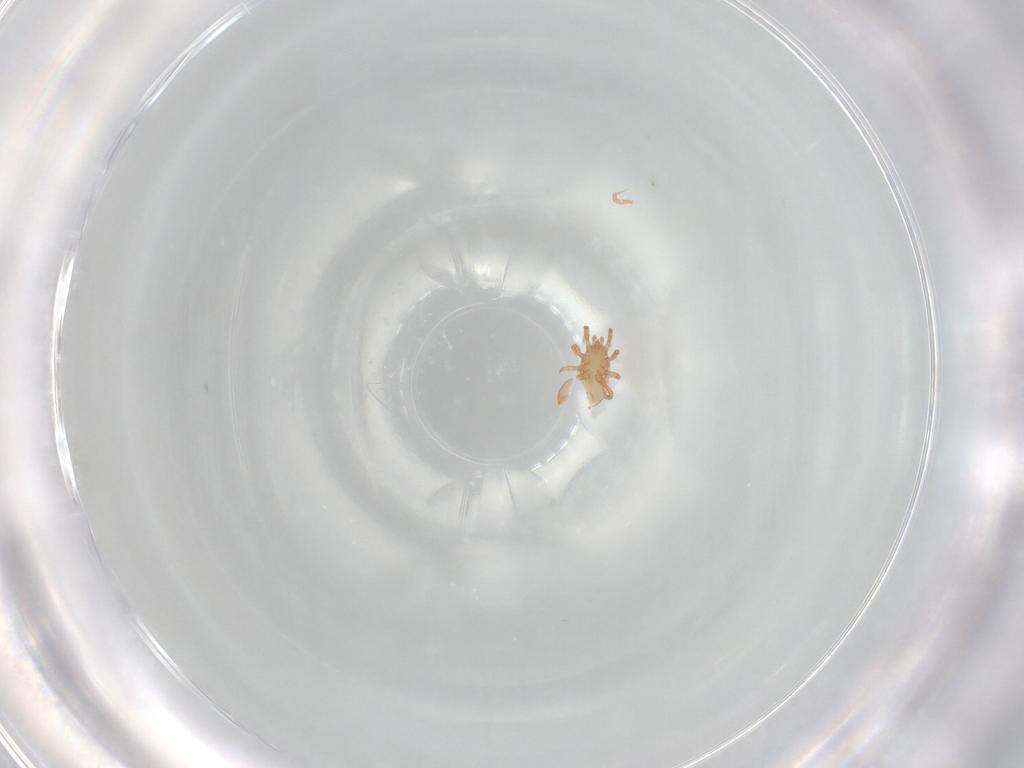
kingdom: Animalia
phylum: Arthropoda
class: Arachnida
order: Mesostigmata
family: Ascidae
